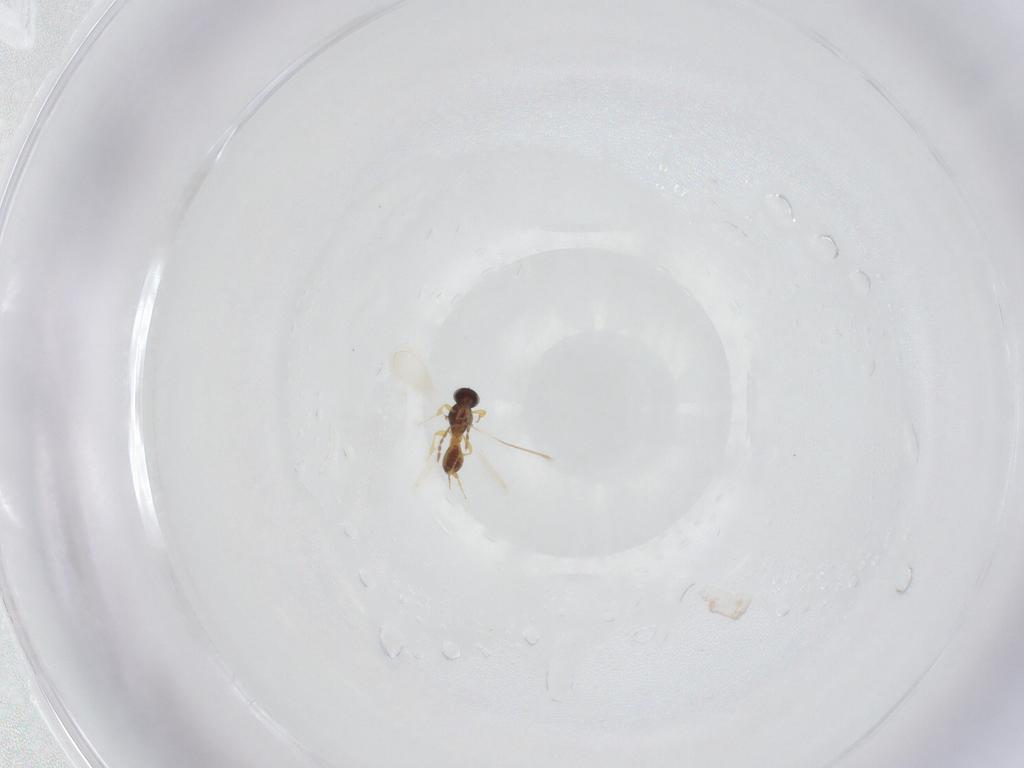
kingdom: Animalia
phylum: Arthropoda
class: Insecta
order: Hymenoptera
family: Platygastridae
